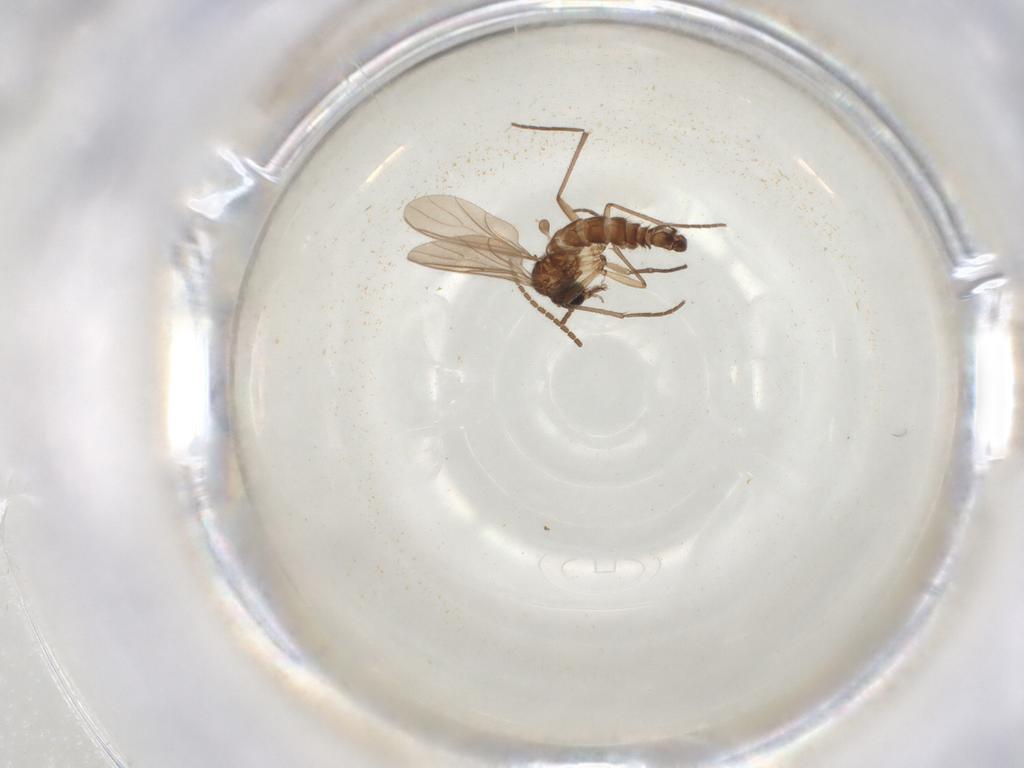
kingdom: Animalia
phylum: Arthropoda
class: Insecta
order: Diptera
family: Sciaridae
